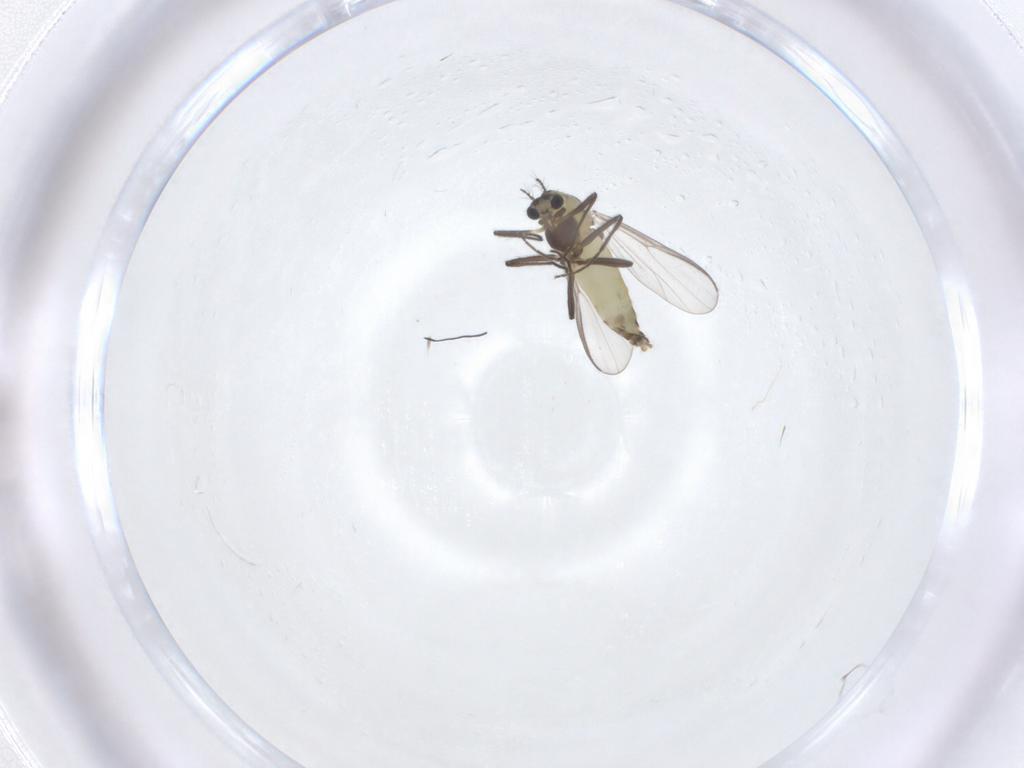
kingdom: Animalia
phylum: Arthropoda
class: Insecta
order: Diptera
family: Chironomidae
